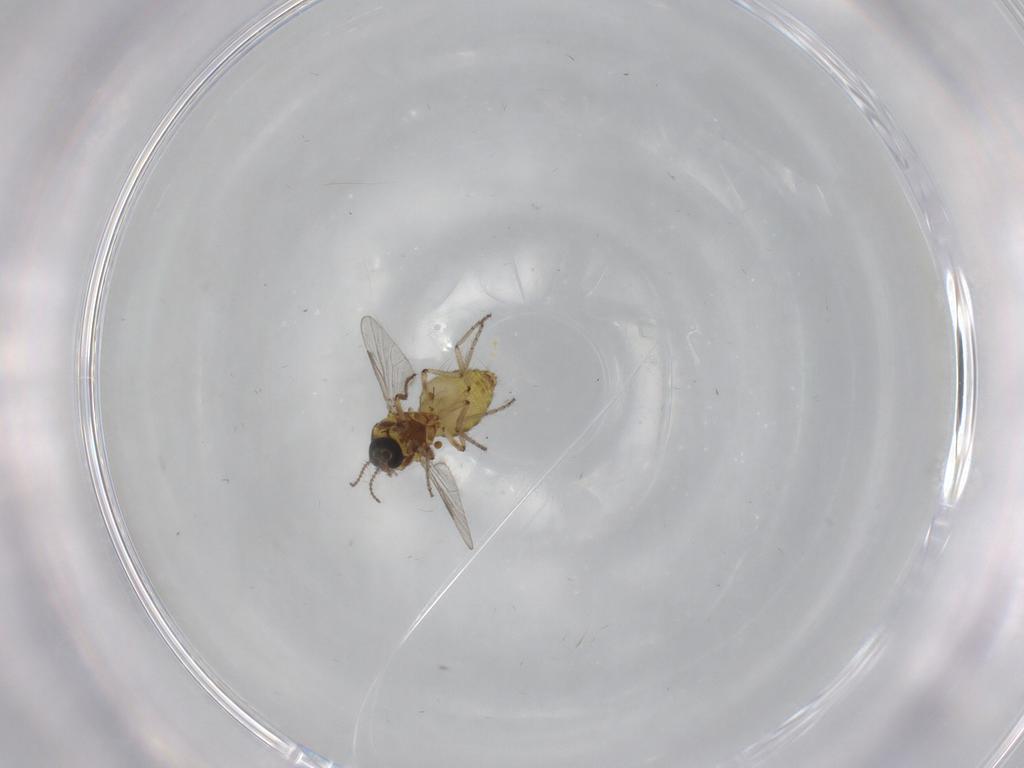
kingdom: Animalia
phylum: Arthropoda
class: Insecta
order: Diptera
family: Ceratopogonidae
